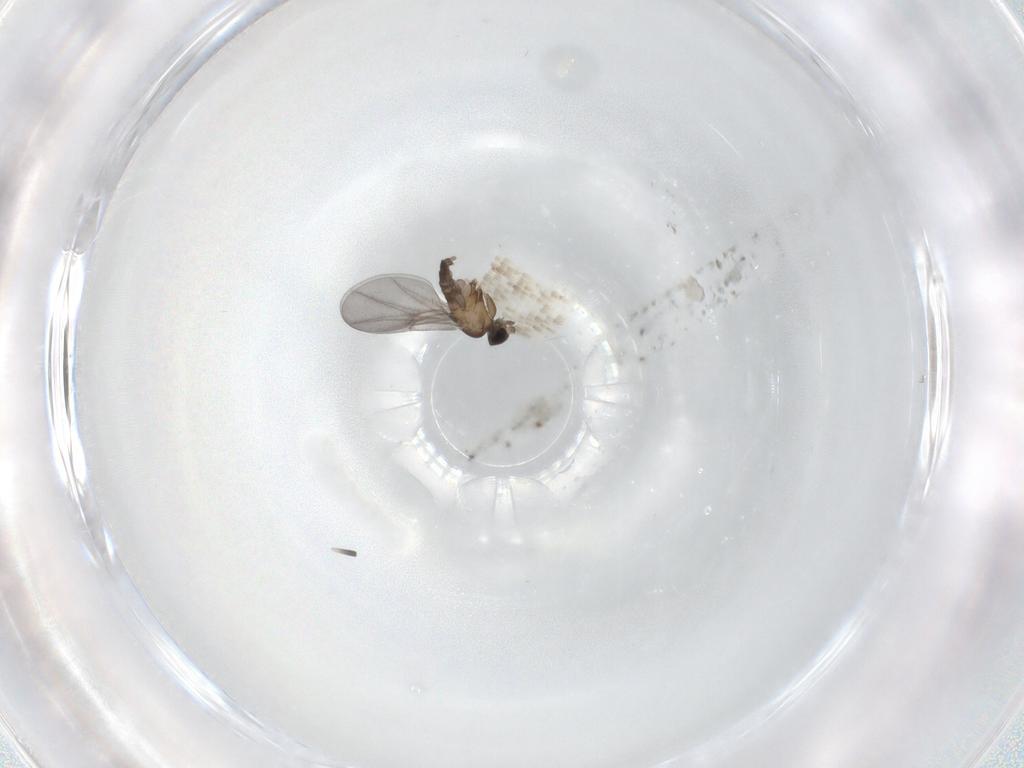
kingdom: Animalia
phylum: Arthropoda
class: Insecta
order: Diptera
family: Phoridae
